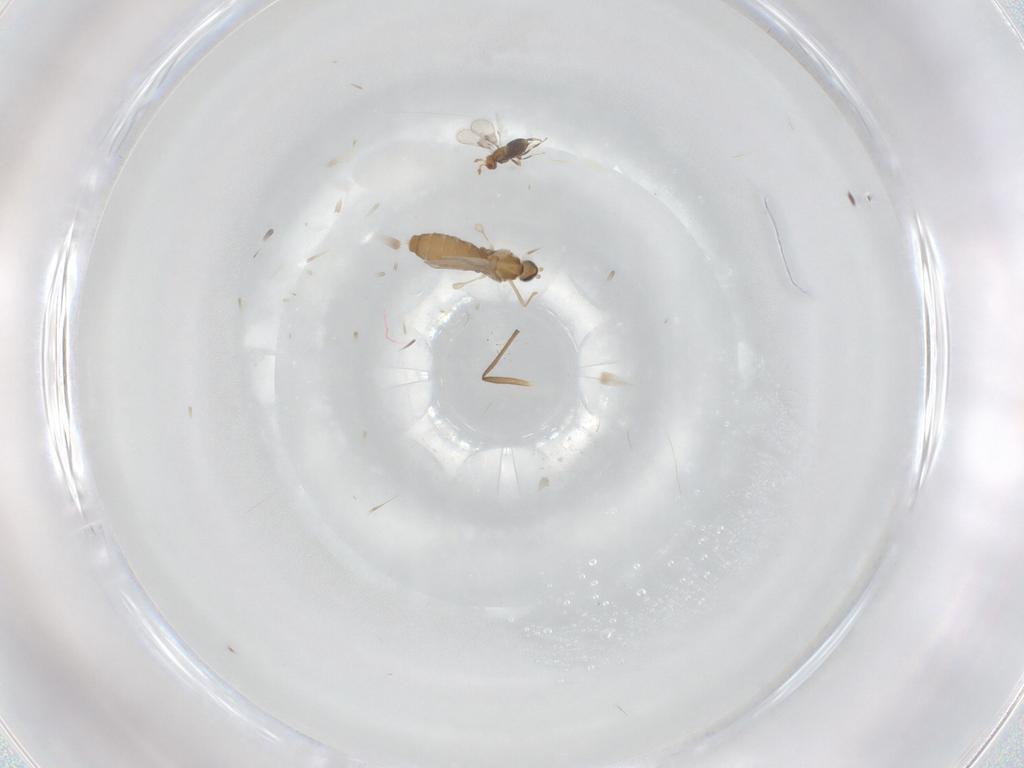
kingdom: Animalia
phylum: Arthropoda
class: Insecta
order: Diptera
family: Chironomidae
